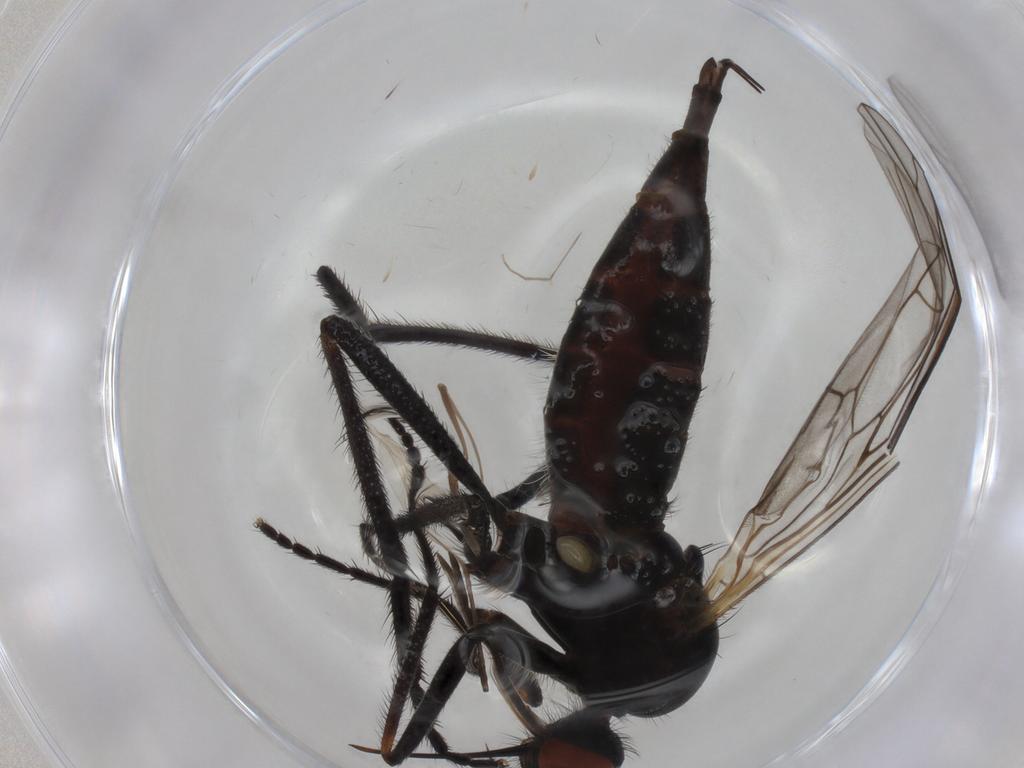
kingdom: Animalia
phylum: Arthropoda
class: Insecta
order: Diptera
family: Empididae
